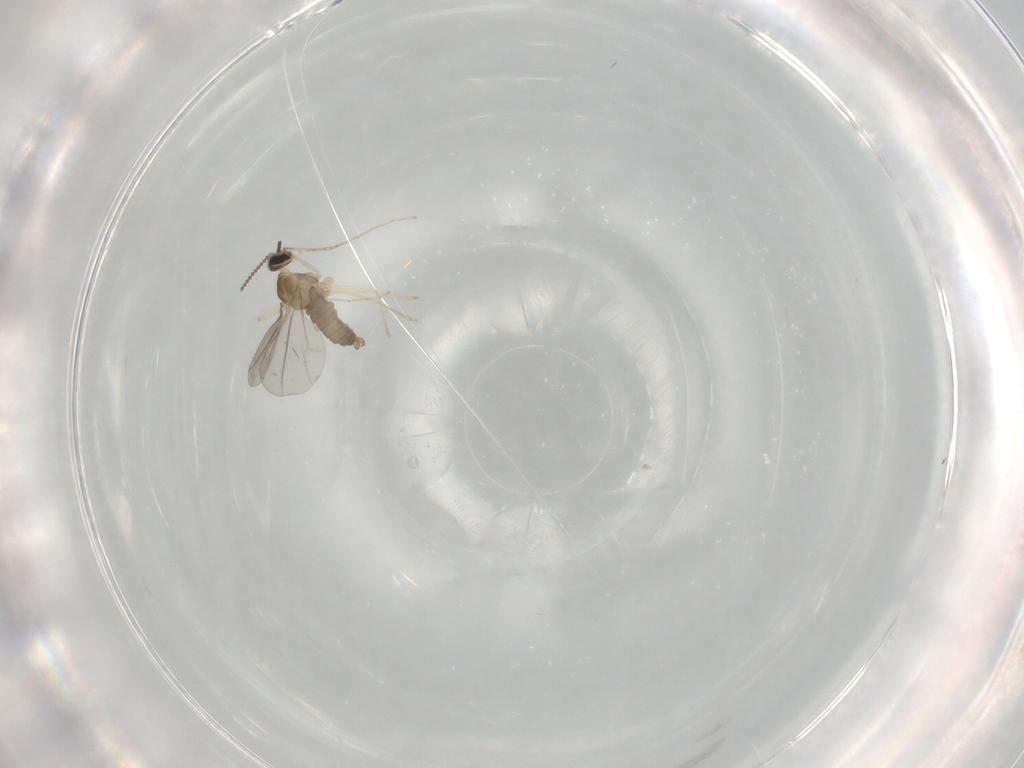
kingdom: Animalia
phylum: Arthropoda
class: Insecta
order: Diptera
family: Cecidomyiidae
